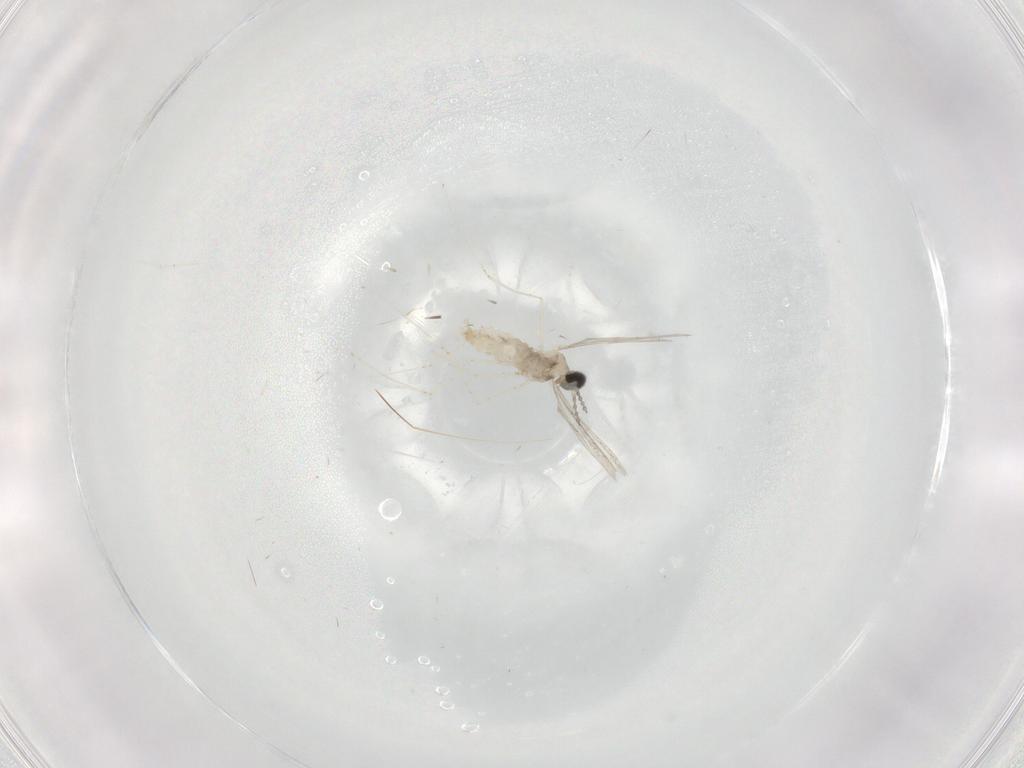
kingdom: Animalia
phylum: Arthropoda
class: Insecta
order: Diptera
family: Cecidomyiidae
